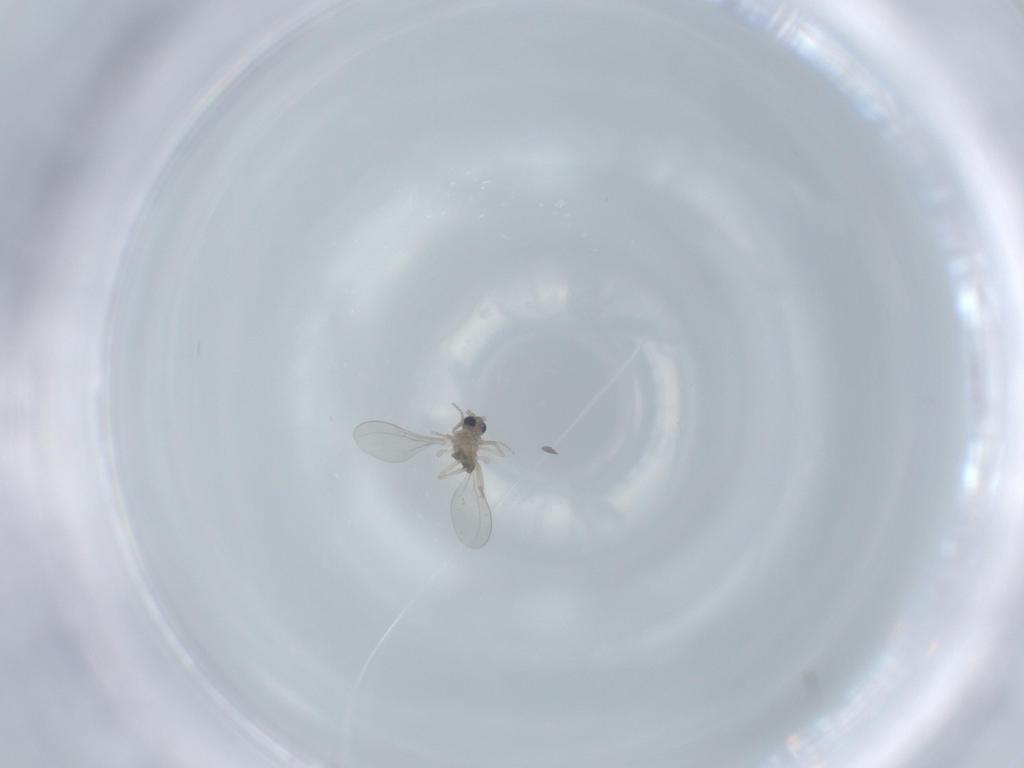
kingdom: Animalia
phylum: Arthropoda
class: Insecta
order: Diptera
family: Cecidomyiidae
